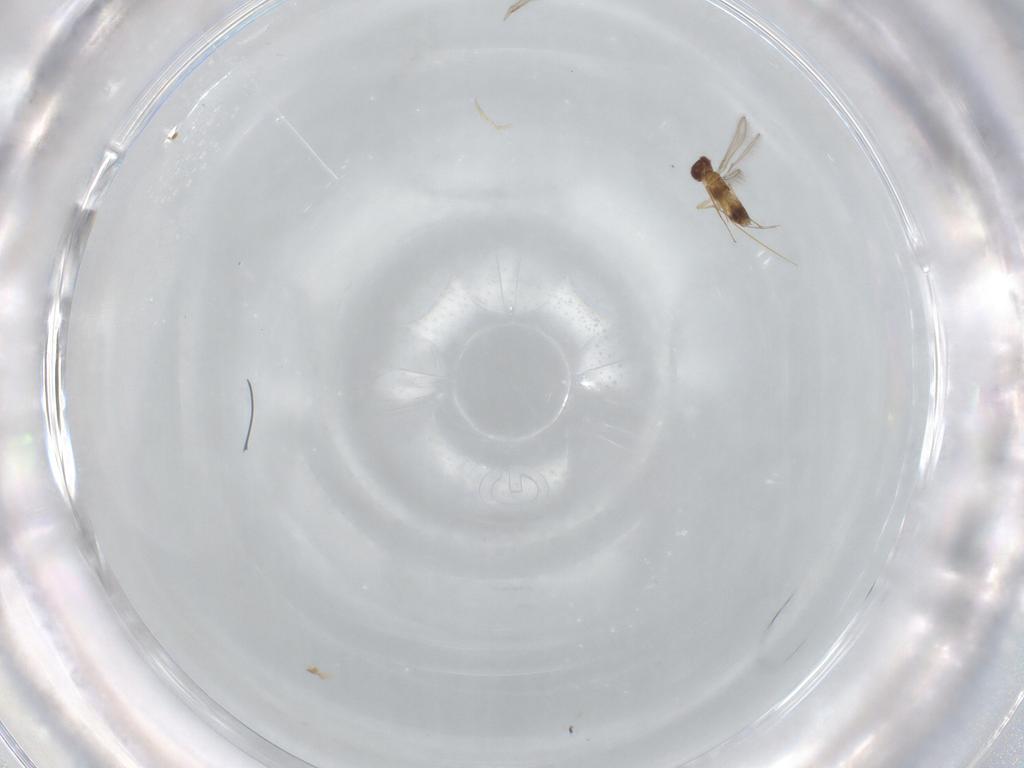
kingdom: Animalia
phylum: Arthropoda
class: Insecta
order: Hymenoptera
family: Mymaridae
